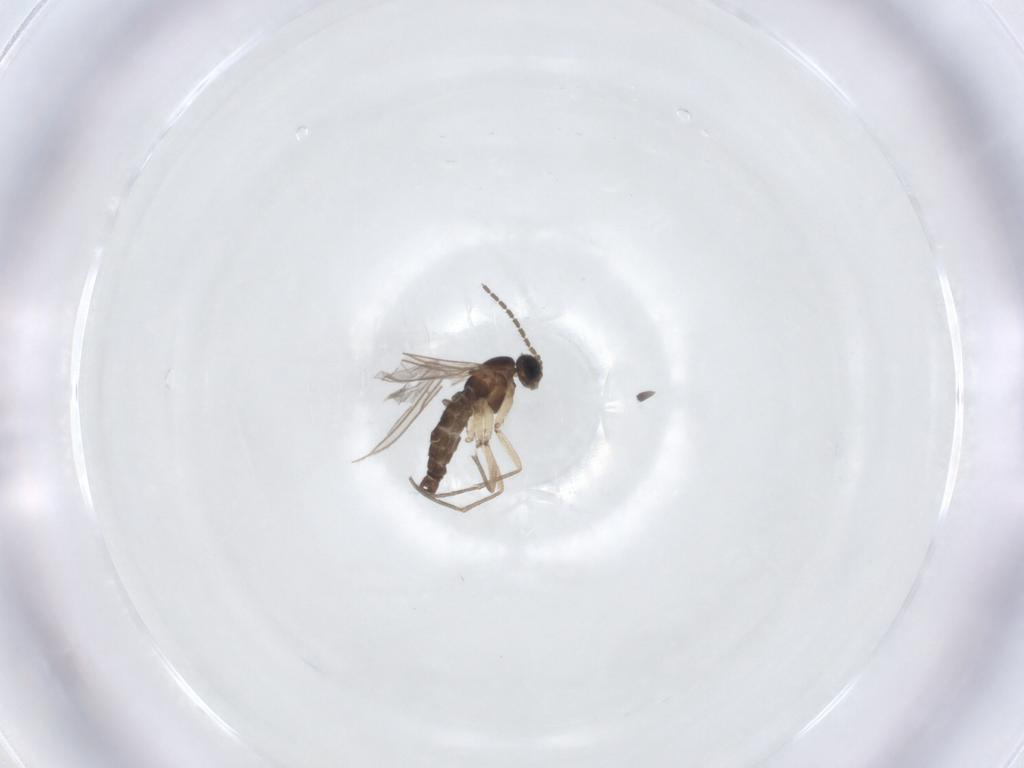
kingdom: Animalia
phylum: Arthropoda
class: Insecta
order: Diptera
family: Sciaridae
